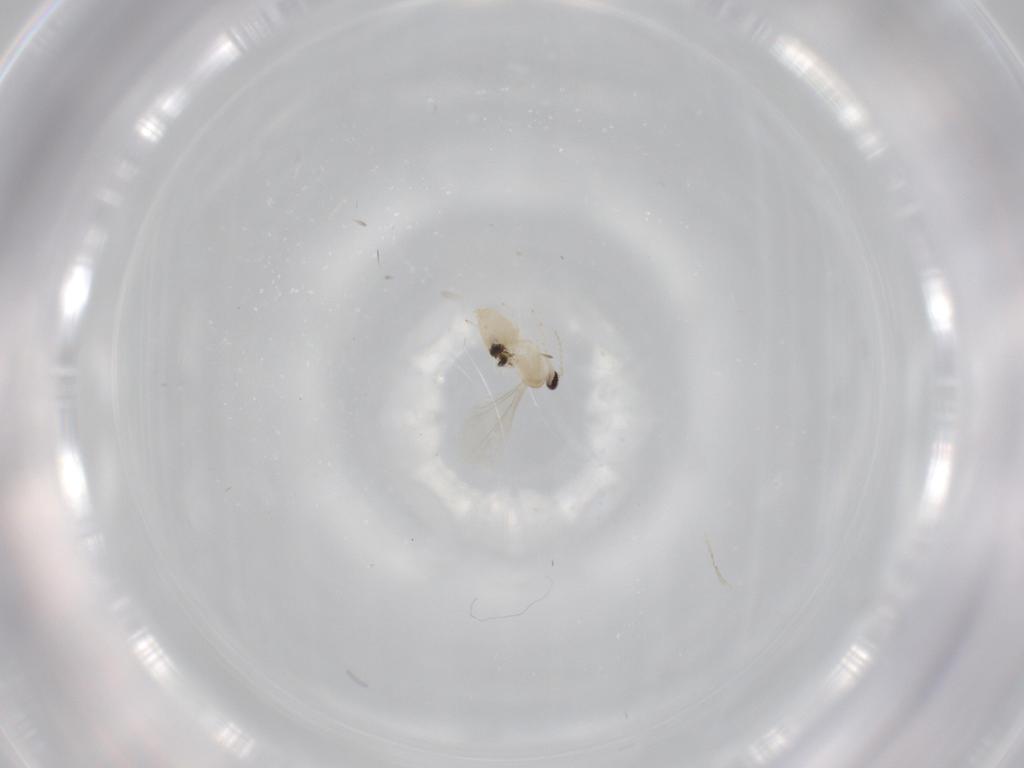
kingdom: Animalia
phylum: Arthropoda
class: Insecta
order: Diptera
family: Cecidomyiidae
